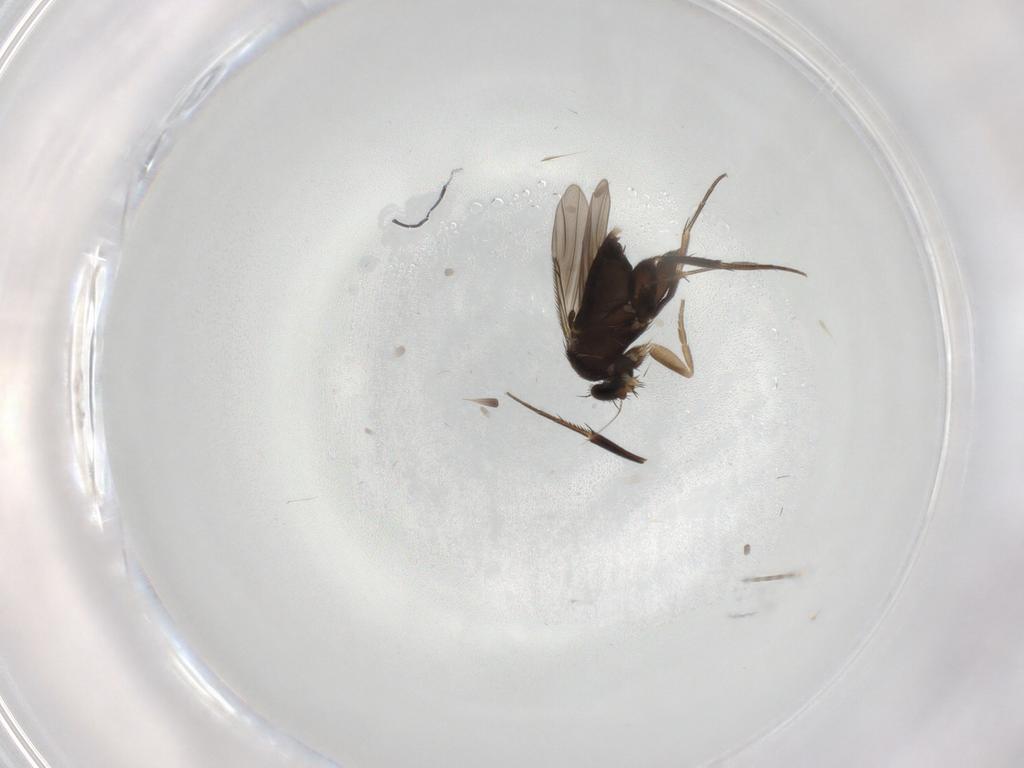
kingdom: Animalia
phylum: Arthropoda
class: Insecta
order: Diptera
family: Phoridae
